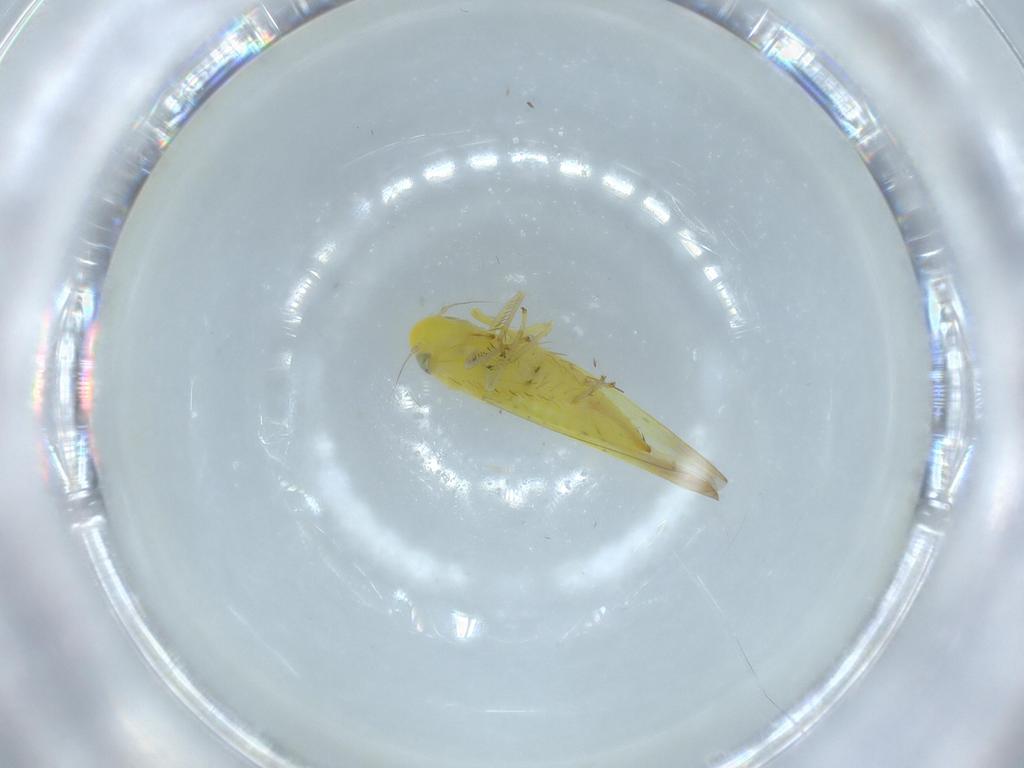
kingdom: Animalia
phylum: Arthropoda
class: Insecta
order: Hemiptera
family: Cicadellidae
